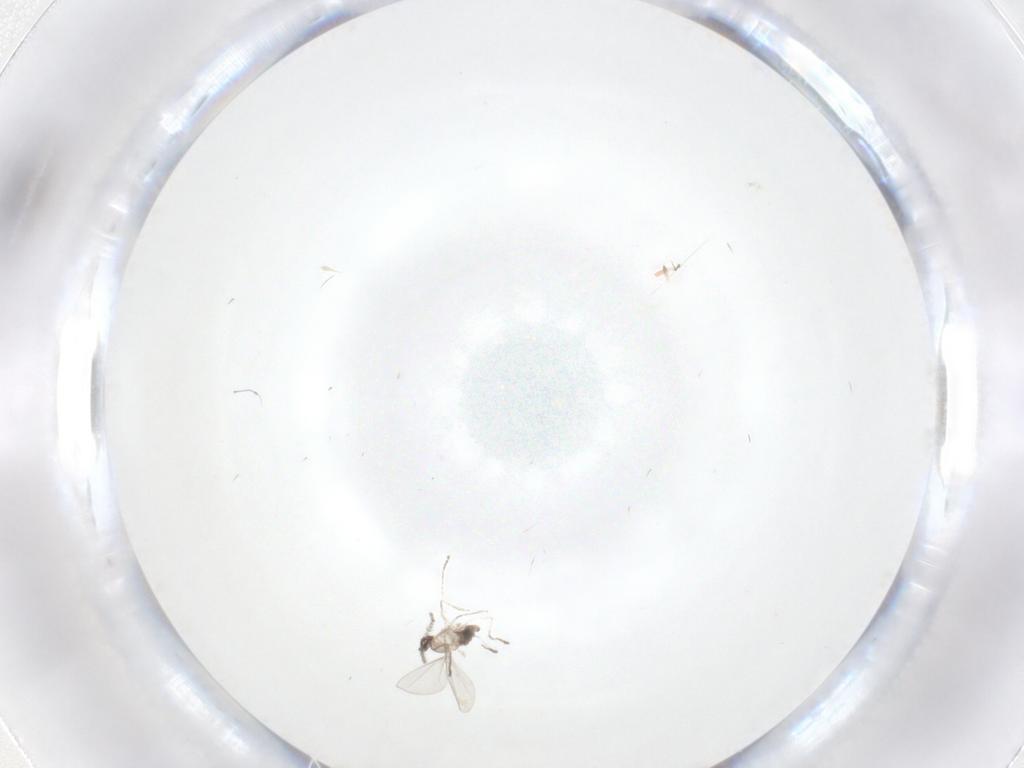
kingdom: Animalia
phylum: Arthropoda
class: Insecta
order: Diptera
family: Cecidomyiidae
